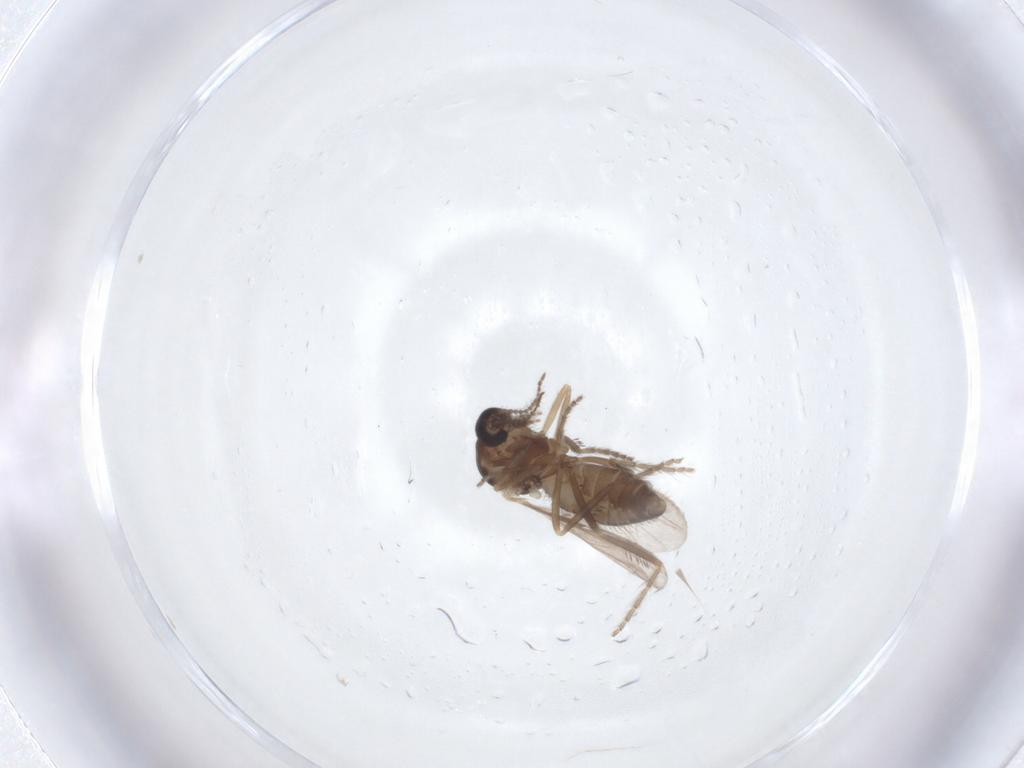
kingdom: Animalia
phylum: Arthropoda
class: Insecta
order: Diptera
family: Ceratopogonidae
